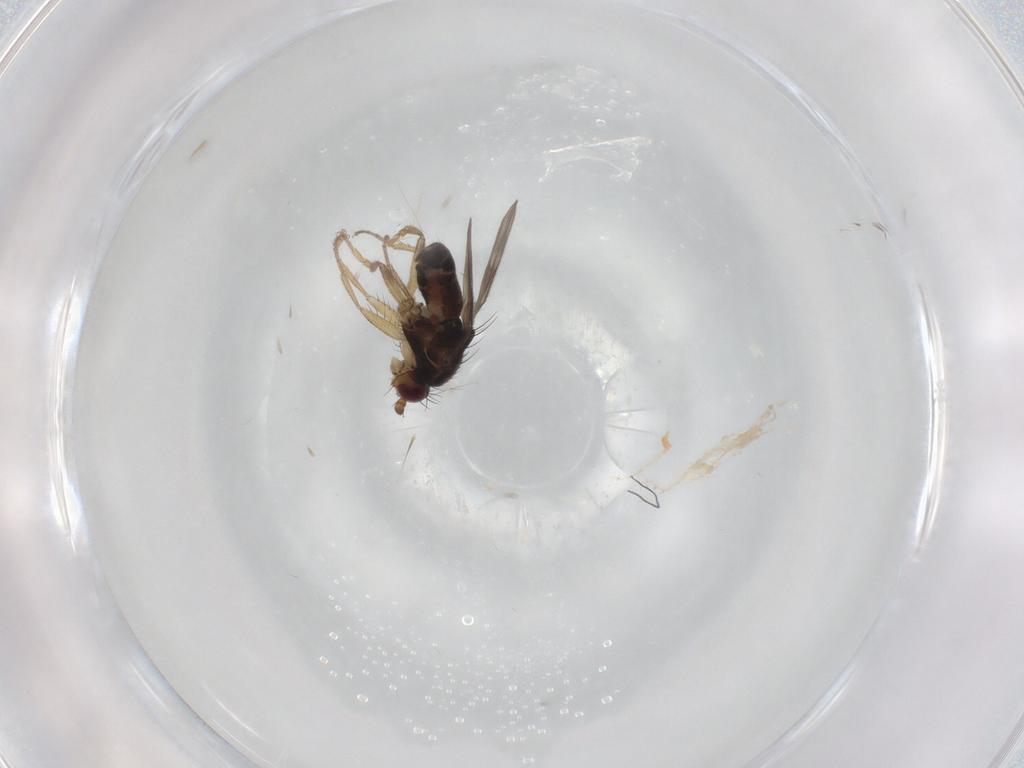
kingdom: Animalia
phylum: Arthropoda
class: Insecta
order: Diptera
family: Sphaeroceridae
